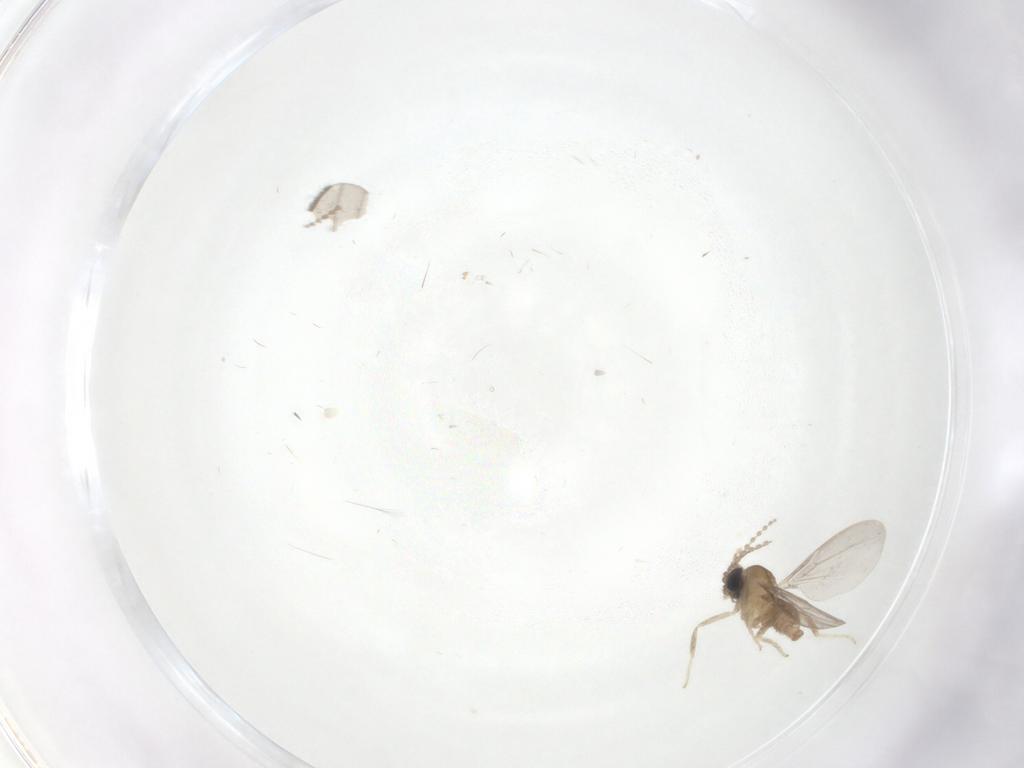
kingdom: Animalia
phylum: Arthropoda
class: Insecta
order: Diptera
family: Cecidomyiidae
